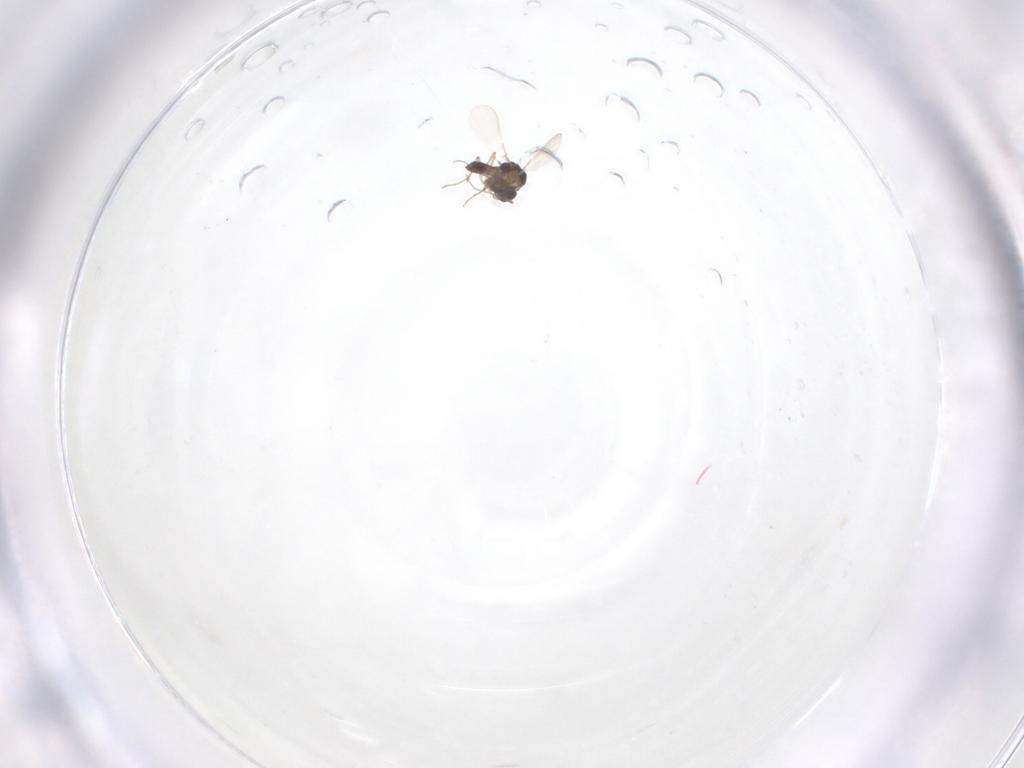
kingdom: Animalia
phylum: Arthropoda
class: Insecta
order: Diptera
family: Chironomidae
